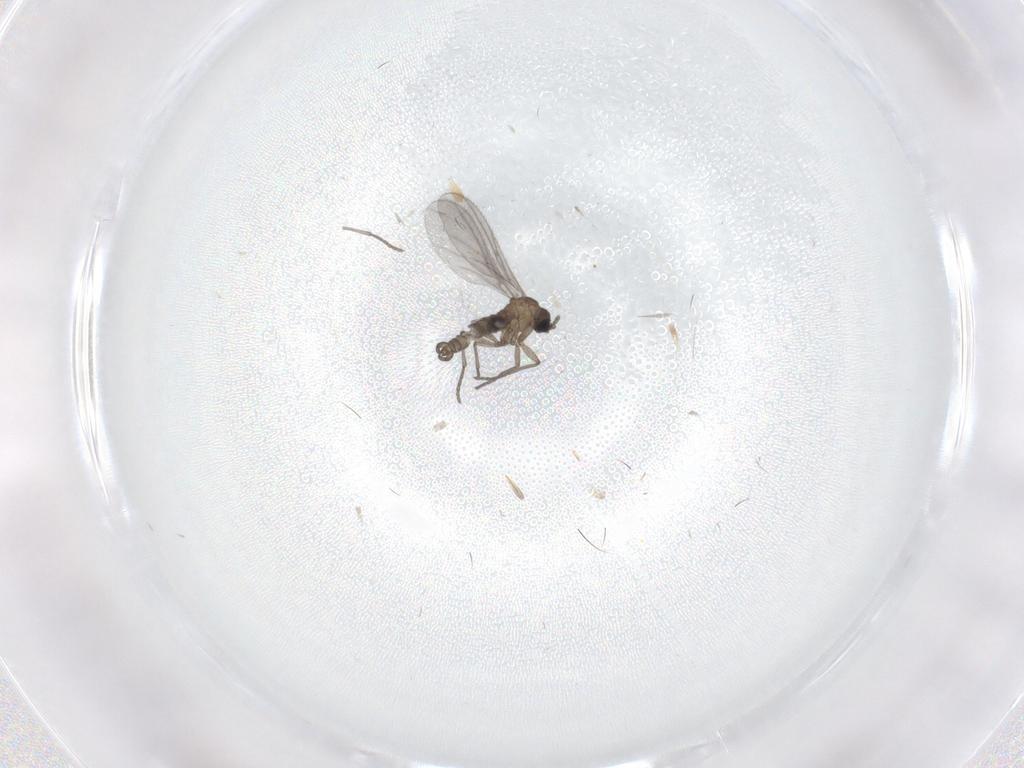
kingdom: Animalia
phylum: Arthropoda
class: Insecta
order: Diptera
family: Sciaridae
